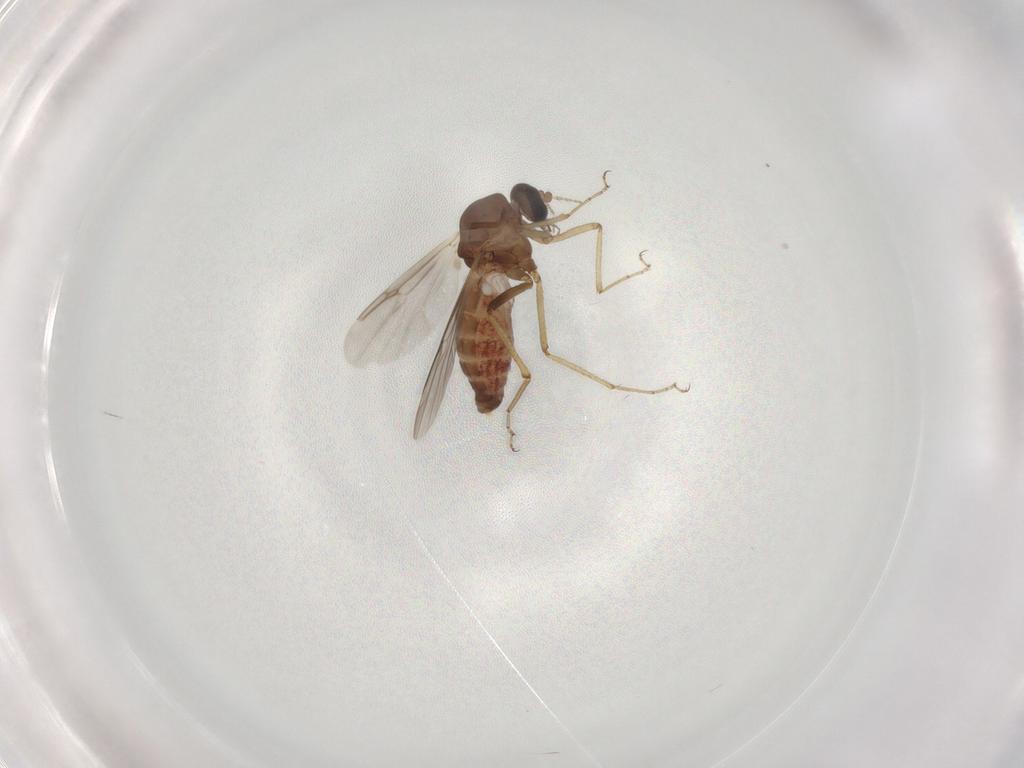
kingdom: Animalia
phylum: Arthropoda
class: Insecta
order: Diptera
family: Ceratopogonidae
